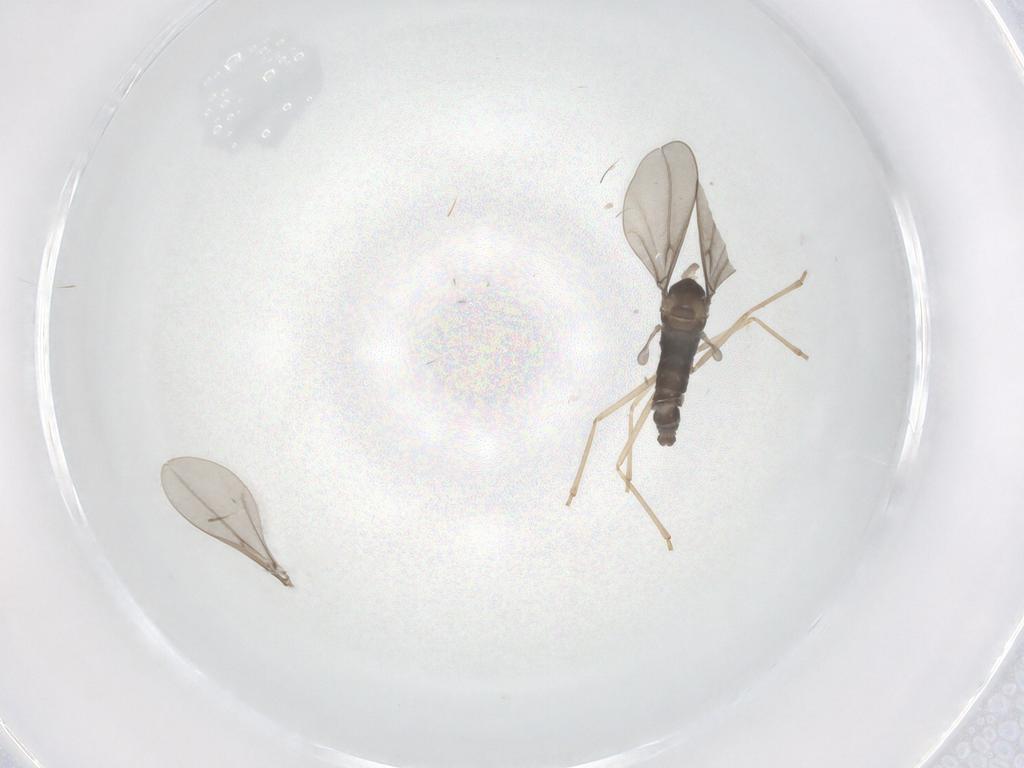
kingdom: Animalia
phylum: Arthropoda
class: Insecta
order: Diptera
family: Cecidomyiidae
